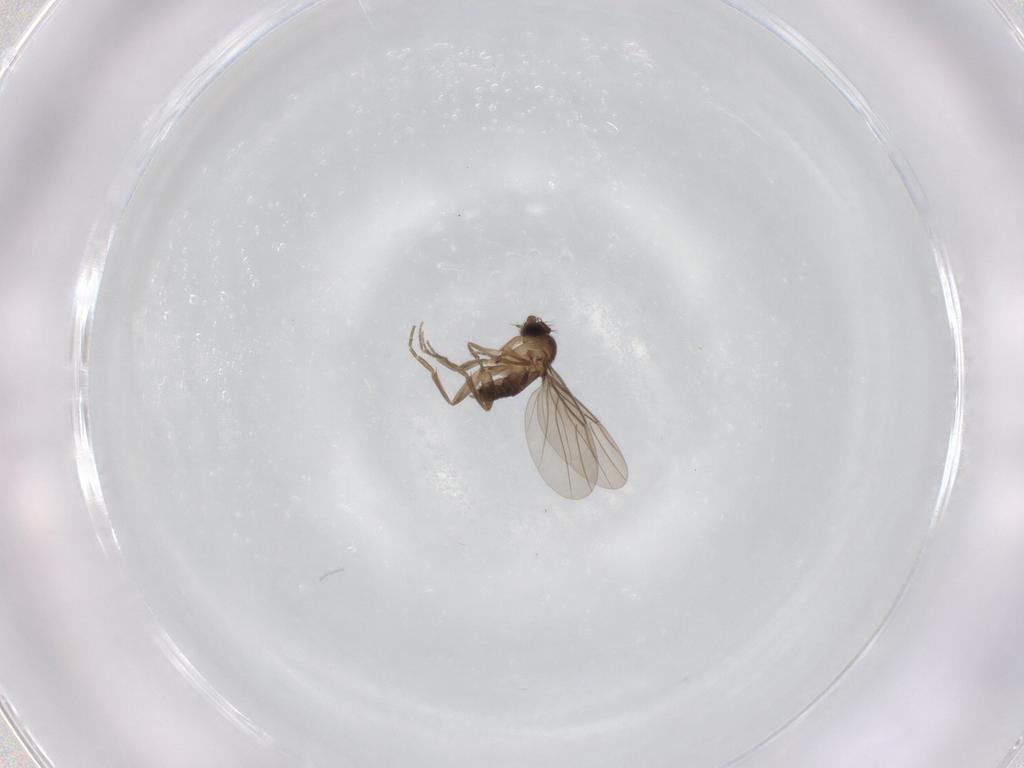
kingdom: Animalia
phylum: Arthropoda
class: Insecta
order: Diptera
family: Phoridae
